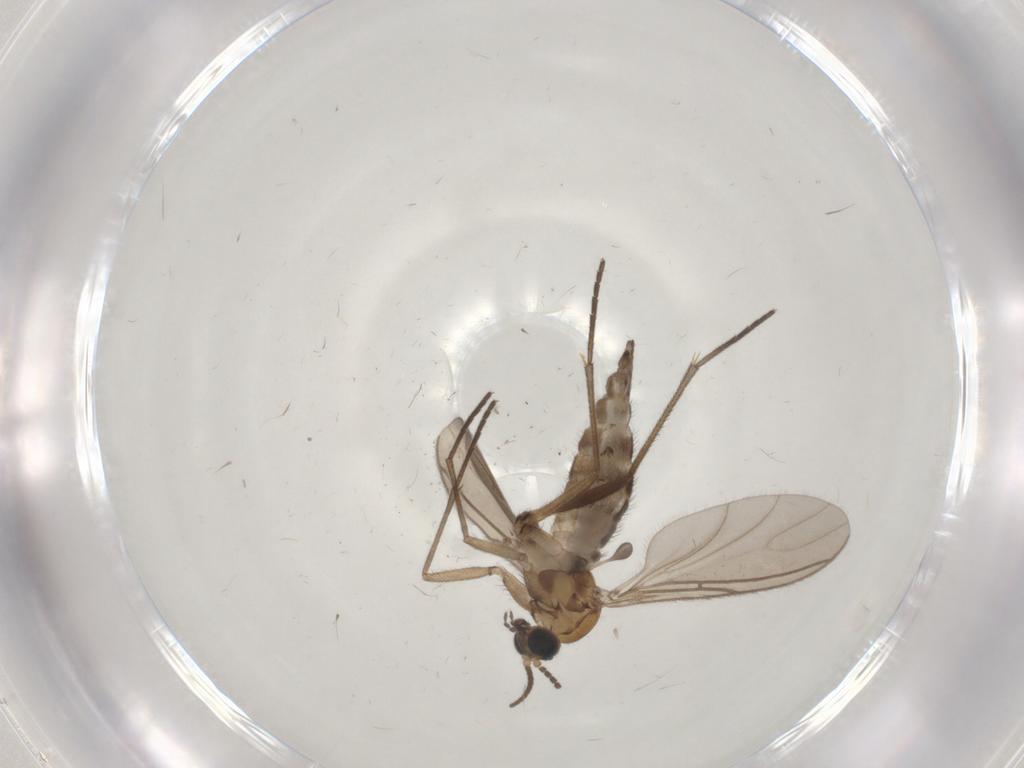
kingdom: Animalia
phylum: Arthropoda
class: Insecta
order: Diptera
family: Sciaridae
